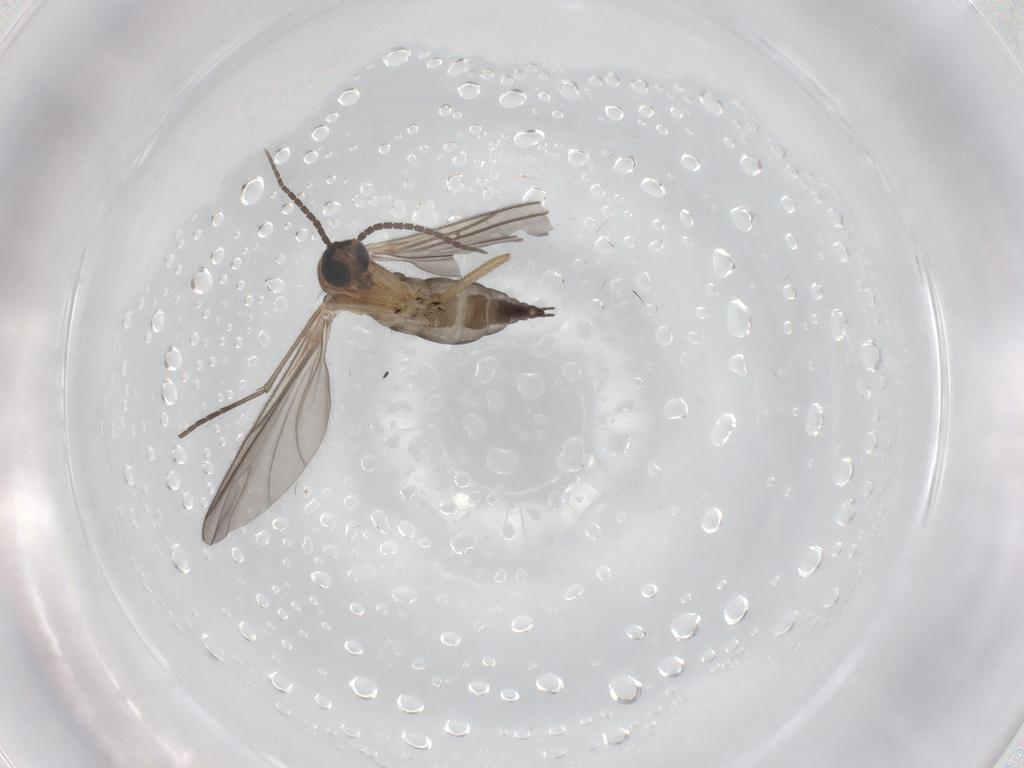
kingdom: Animalia
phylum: Arthropoda
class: Insecta
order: Diptera
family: Sciaridae
